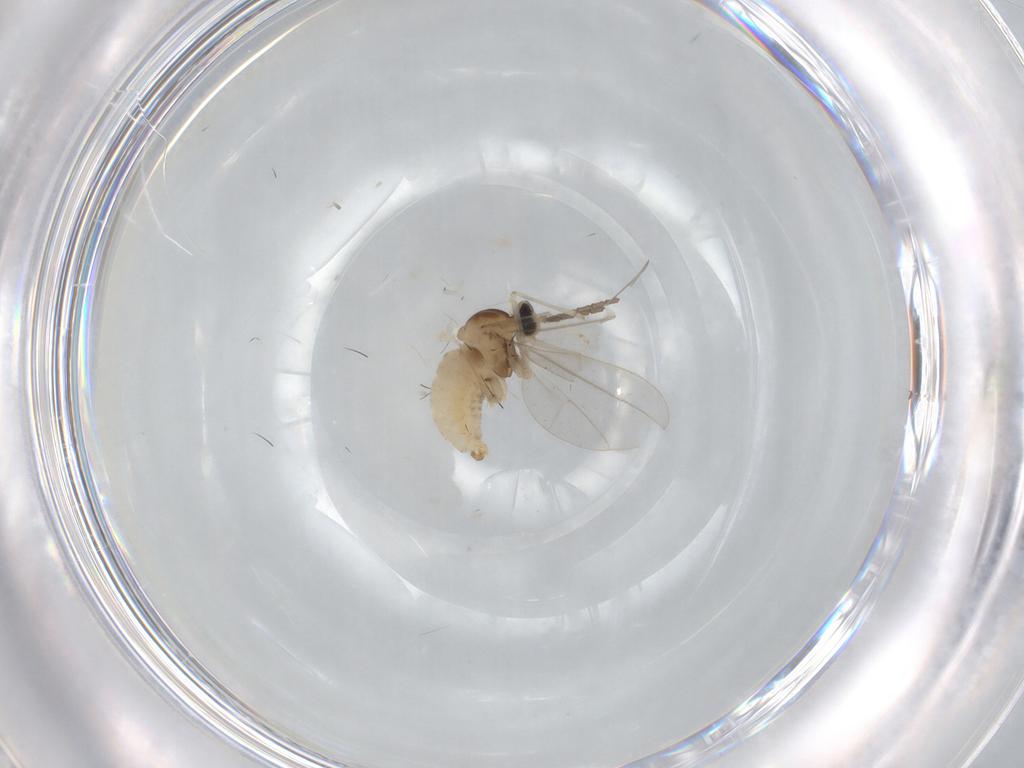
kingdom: Animalia
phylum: Arthropoda
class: Insecta
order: Diptera
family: Cecidomyiidae
